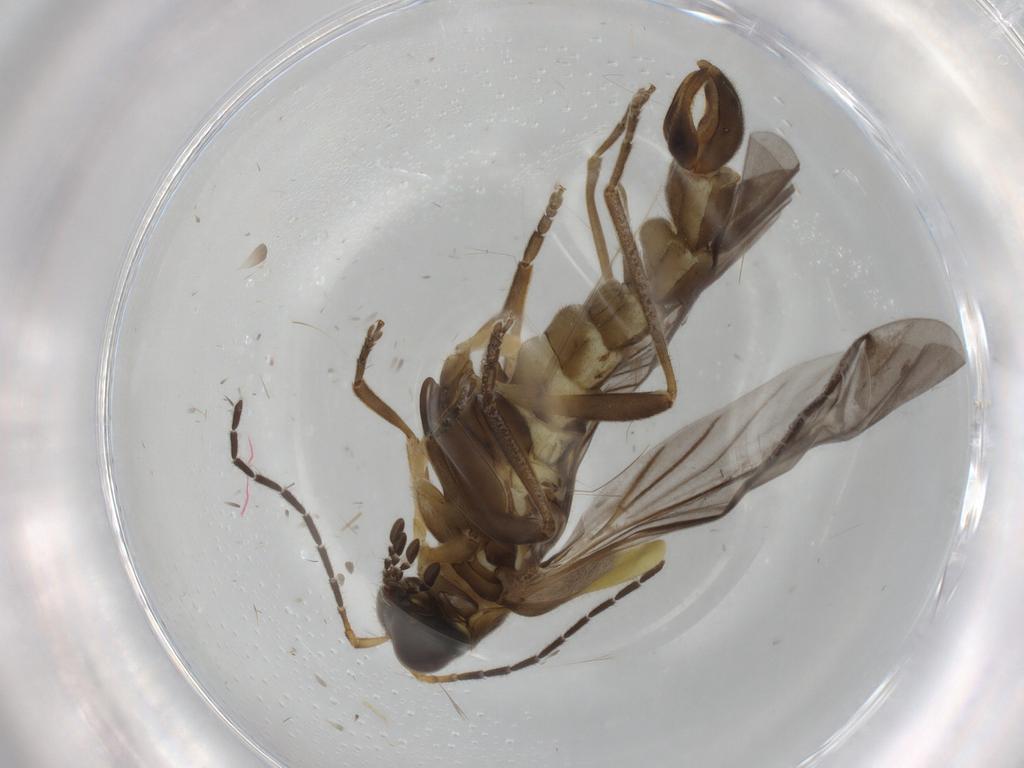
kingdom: Animalia
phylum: Arthropoda
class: Insecta
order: Coleoptera
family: Cantharidae
